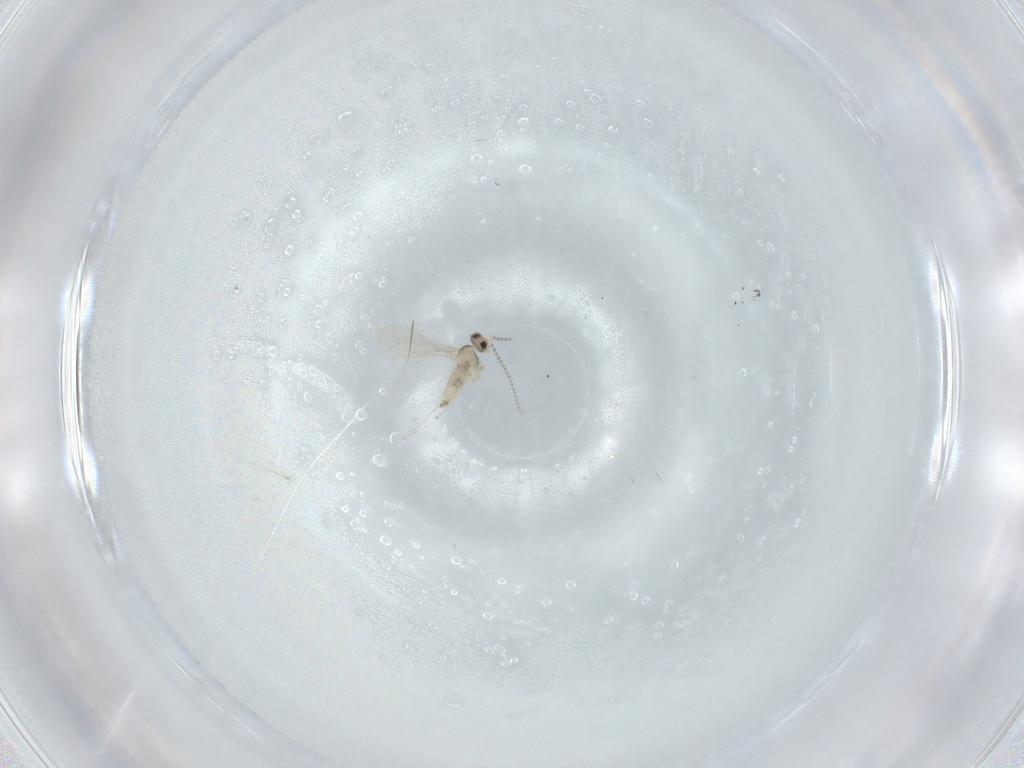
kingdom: Animalia
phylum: Arthropoda
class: Insecta
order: Diptera
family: Cecidomyiidae
